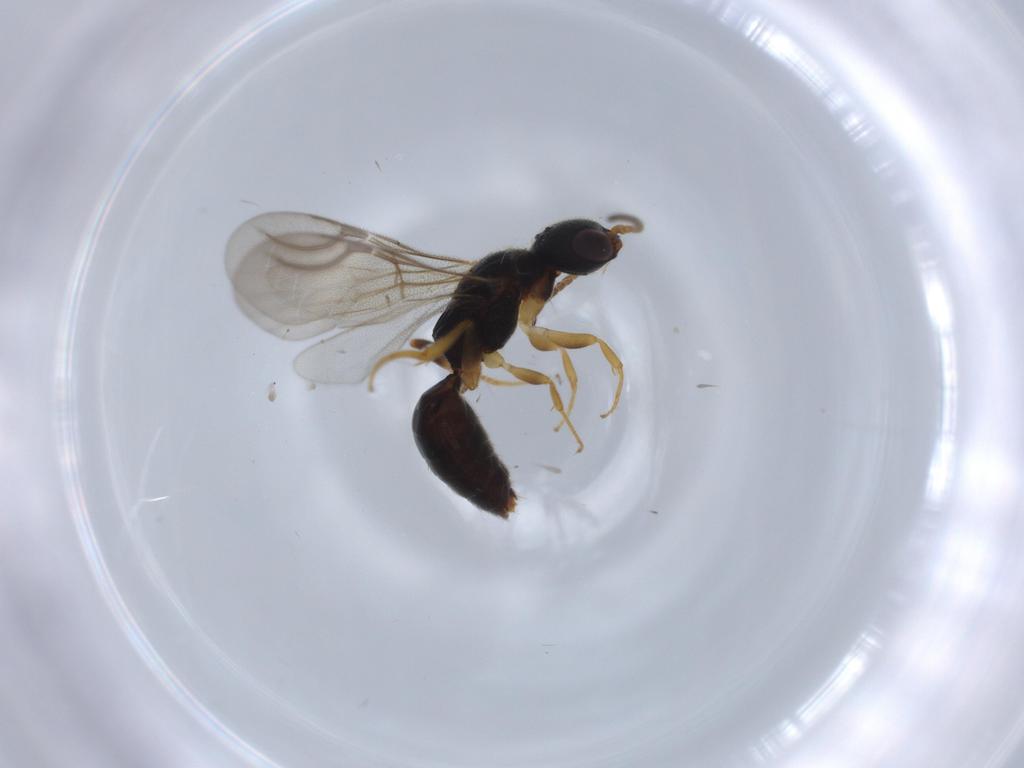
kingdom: Animalia
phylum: Arthropoda
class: Insecta
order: Hymenoptera
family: Bethylidae
